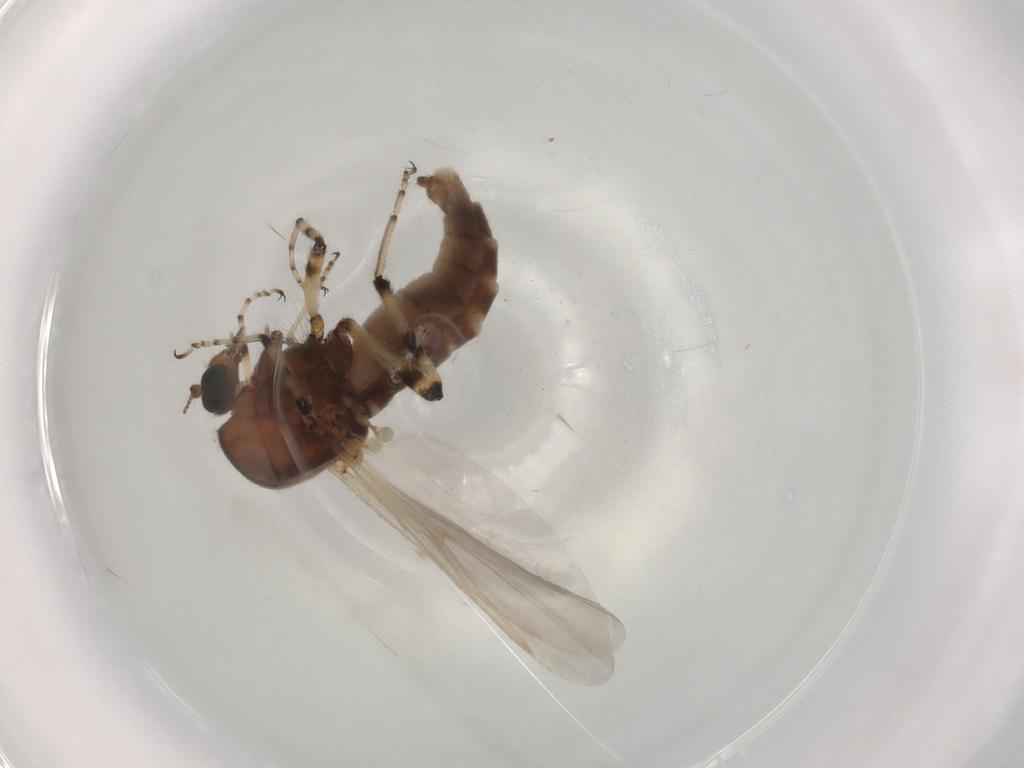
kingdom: Animalia
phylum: Arthropoda
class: Insecta
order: Diptera
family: Ceratopogonidae
